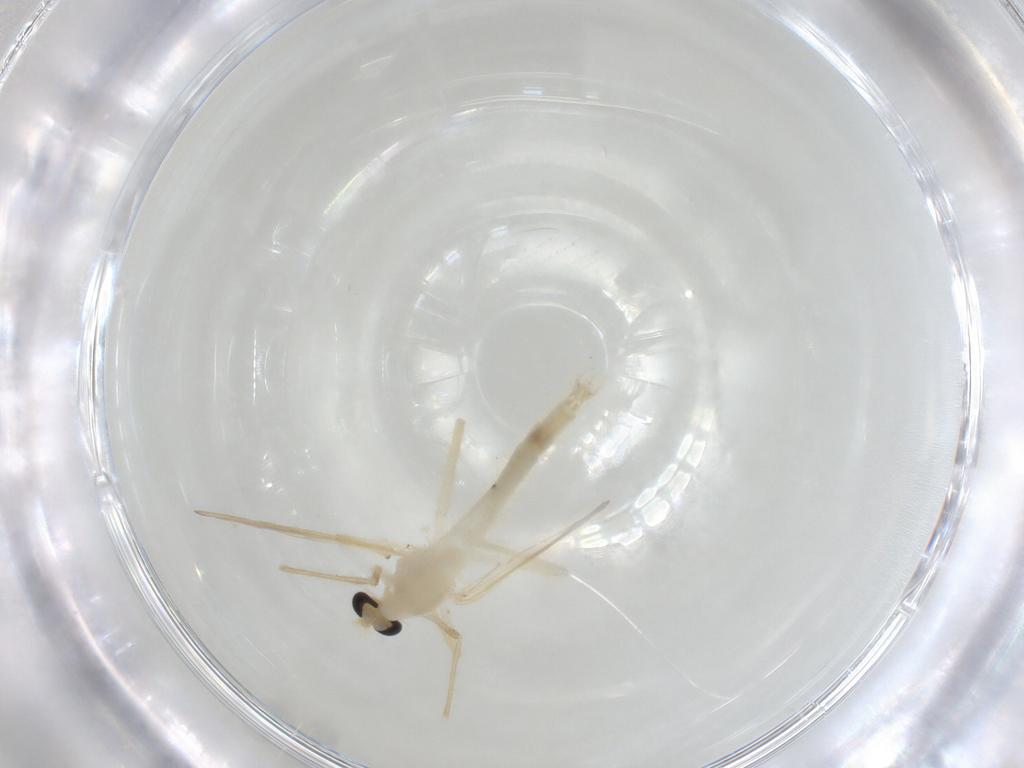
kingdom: Animalia
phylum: Arthropoda
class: Insecta
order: Diptera
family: Chironomidae
